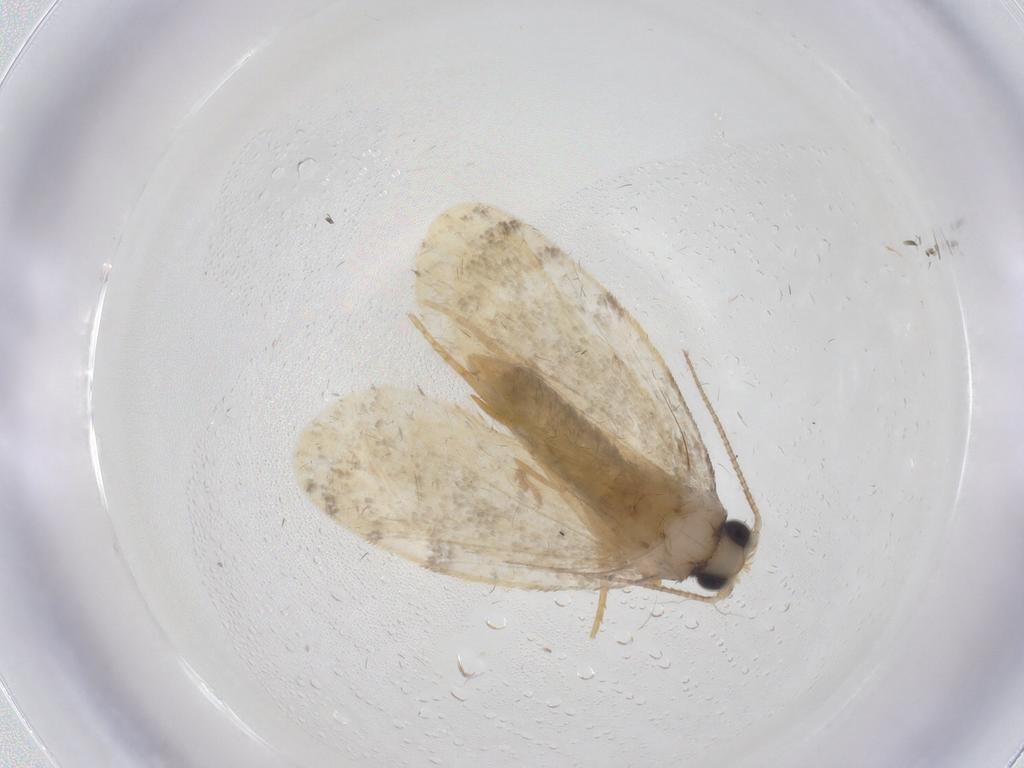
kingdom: Animalia
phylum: Arthropoda
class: Insecta
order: Lepidoptera
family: Psychidae
